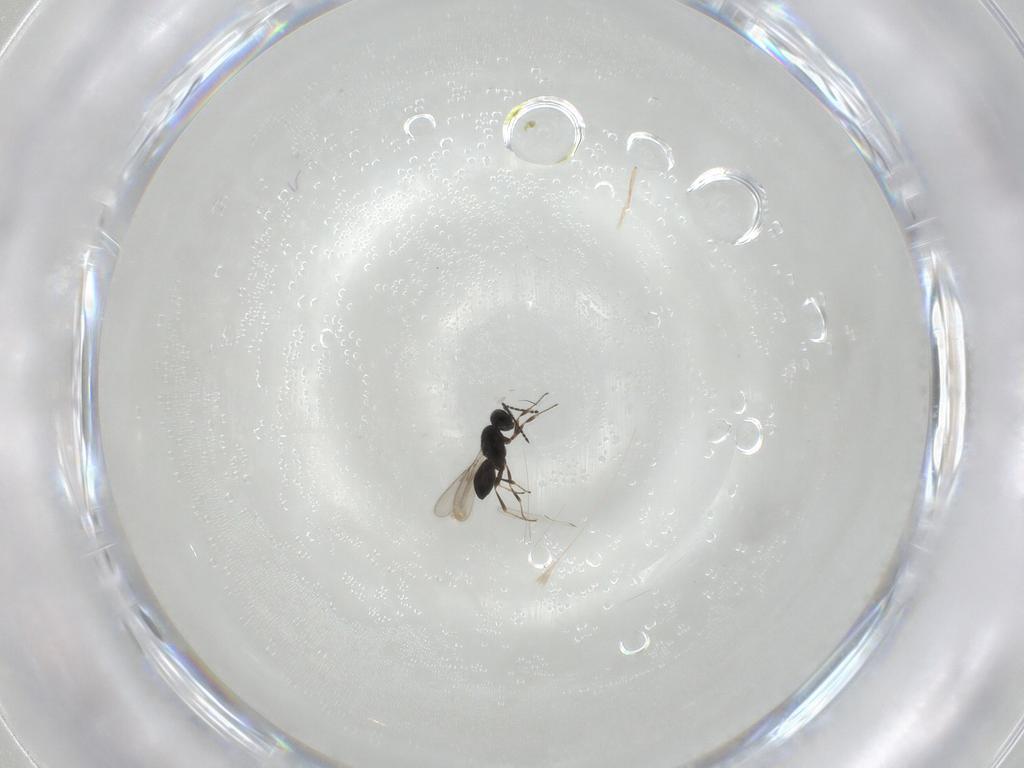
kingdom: Animalia
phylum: Arthropoda
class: Insecta
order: Hymenoptera
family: Scelionidae
